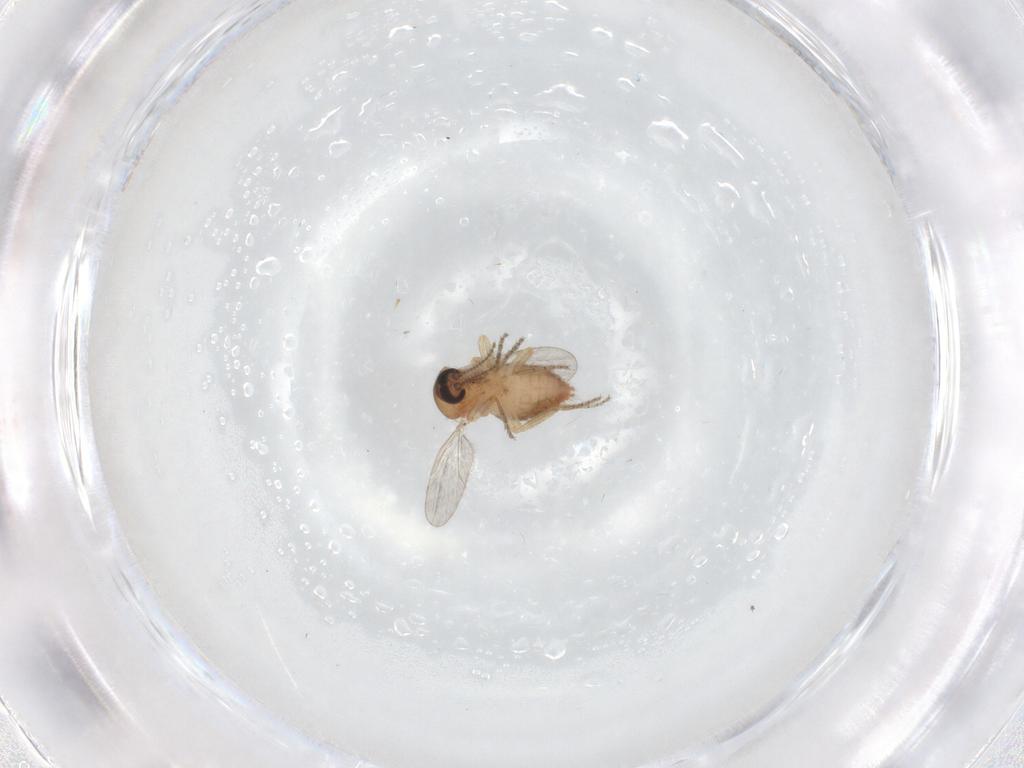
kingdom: Animalia
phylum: Arthropoda
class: Insecta
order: Diptera
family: Ceratopogonidae
